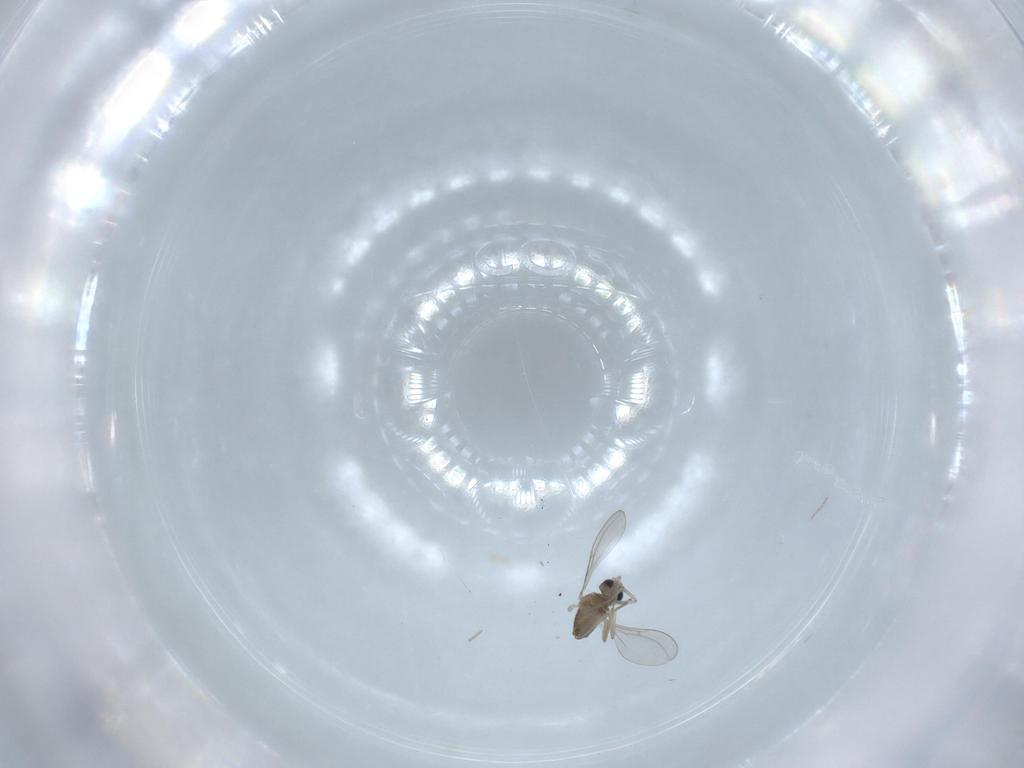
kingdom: Animalia
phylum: Arthropoda
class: Insecta
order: Diptera
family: Cecidomyiidae
